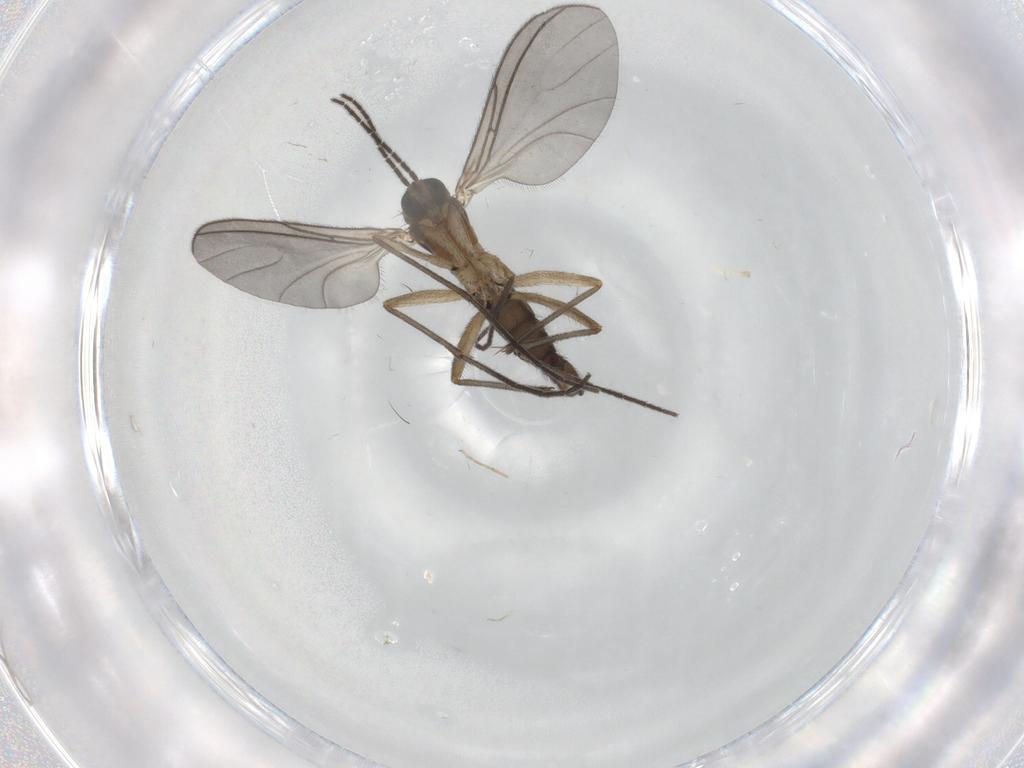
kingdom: Animalia
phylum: Arthropoda
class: Insecta
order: Diptera
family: Sciaridae
